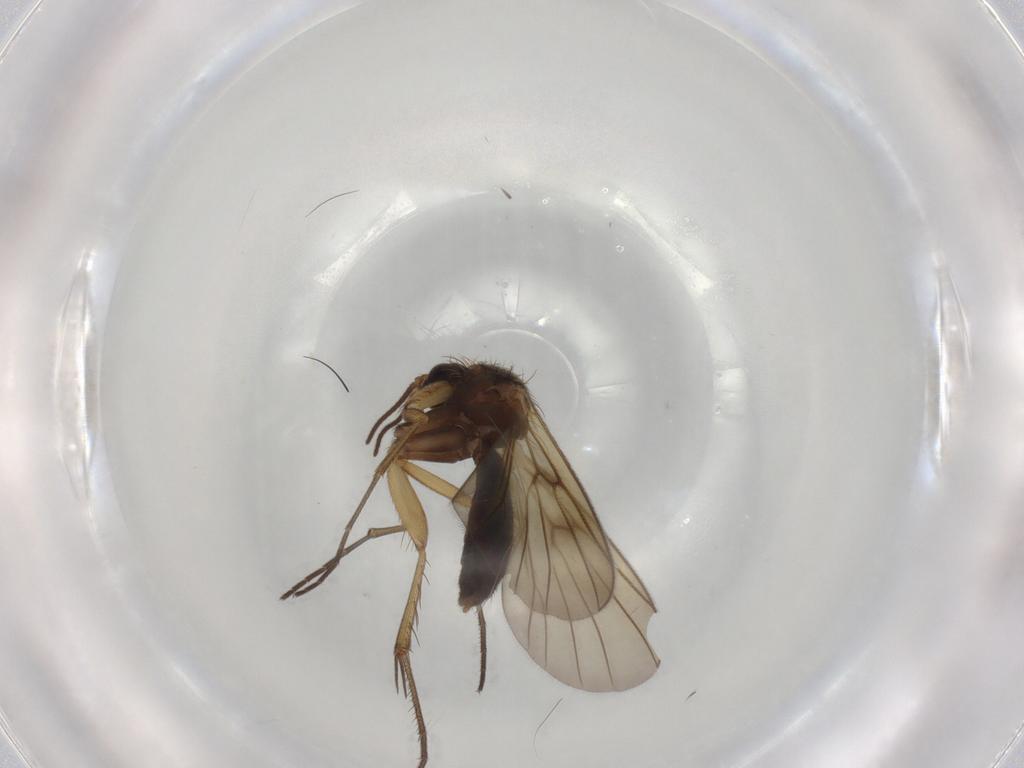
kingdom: Animalia
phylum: Arthropoda
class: Insecta
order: Diptera
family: Mycetophilidae
